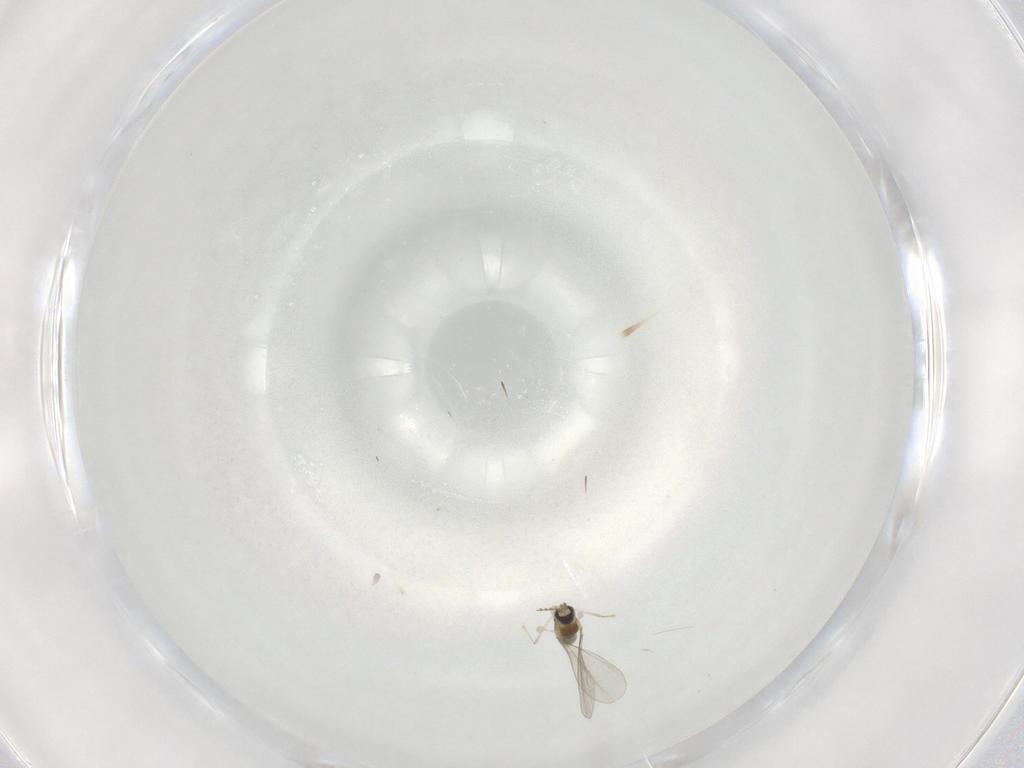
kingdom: Animalia
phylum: Arthropoda
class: Insecta
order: Diptera
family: Cecidomyiidae
